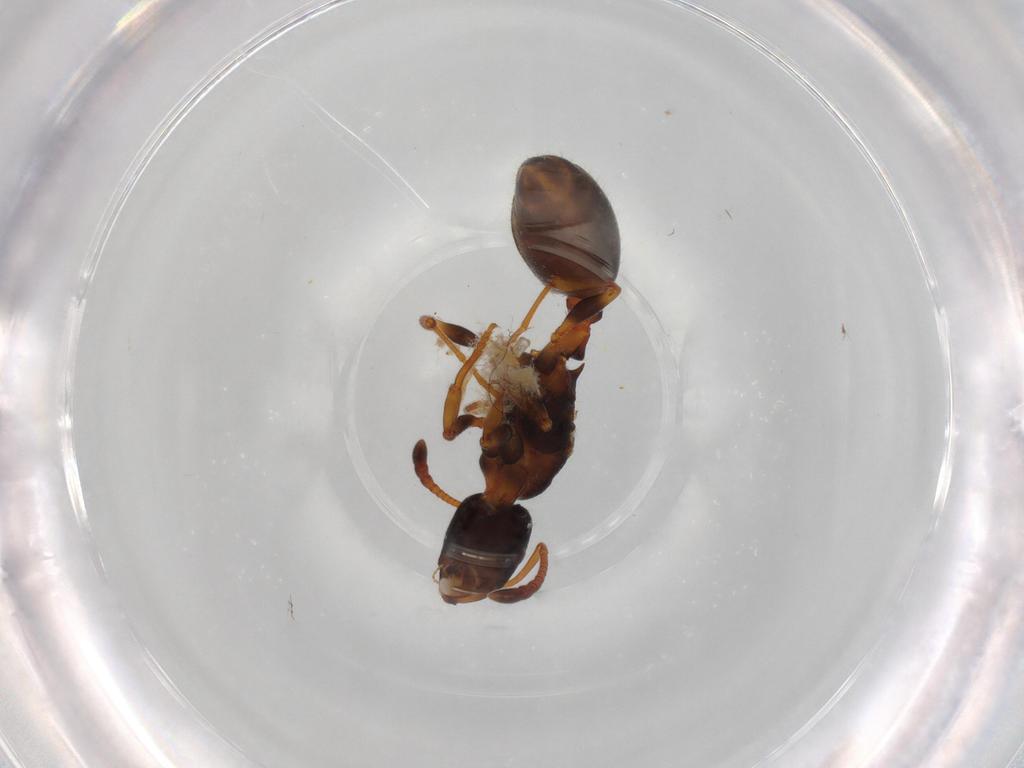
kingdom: Animalia
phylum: Arthropoda
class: Insecta
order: Hymenoptera
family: Formicidae
